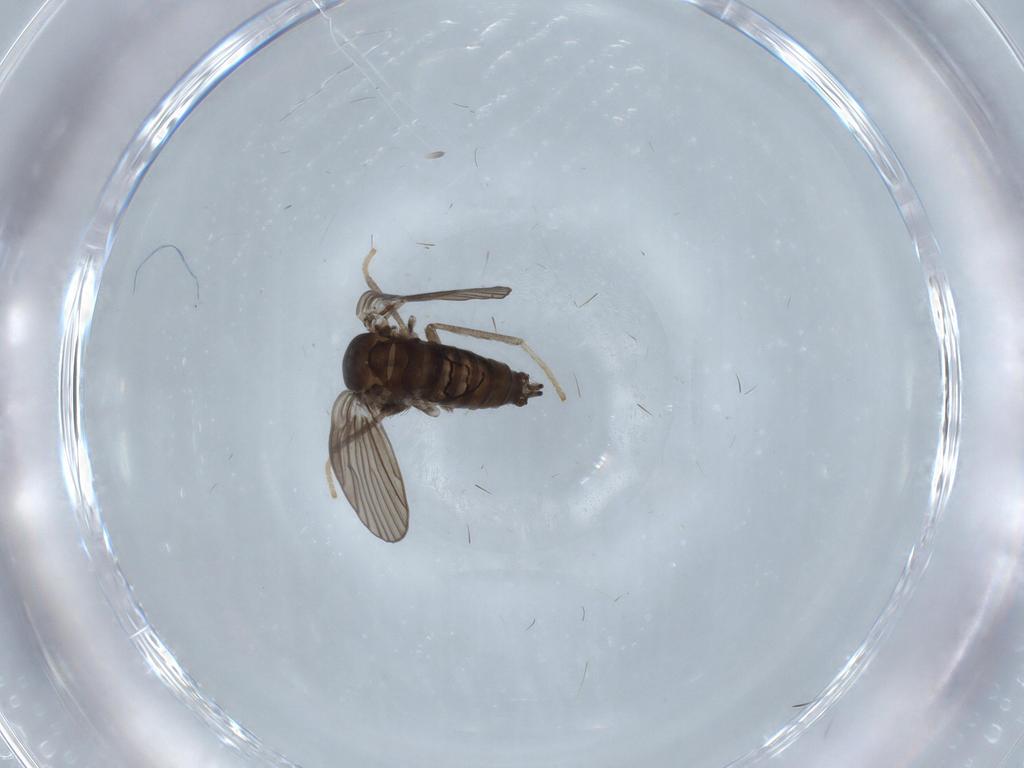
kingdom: Animalia
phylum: Arthropoda
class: Insecta
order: Diptera
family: Psychodidae
